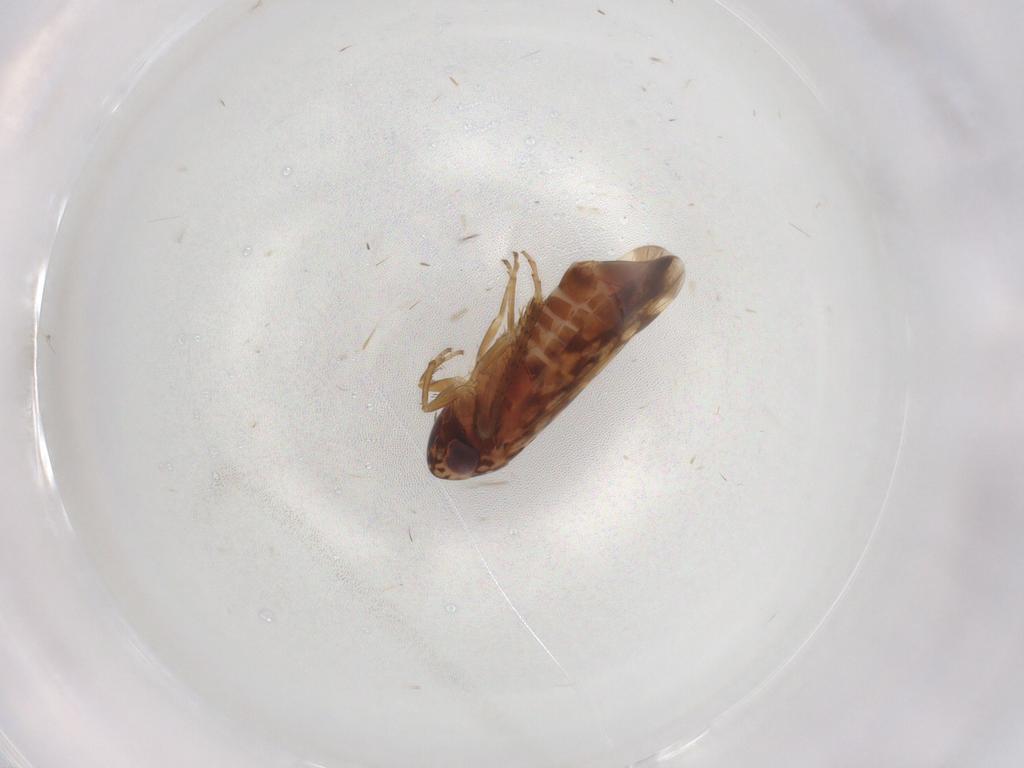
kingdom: Animalia
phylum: Arthropoda
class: Insecta
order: Hemiptera
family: Cicadellidae
